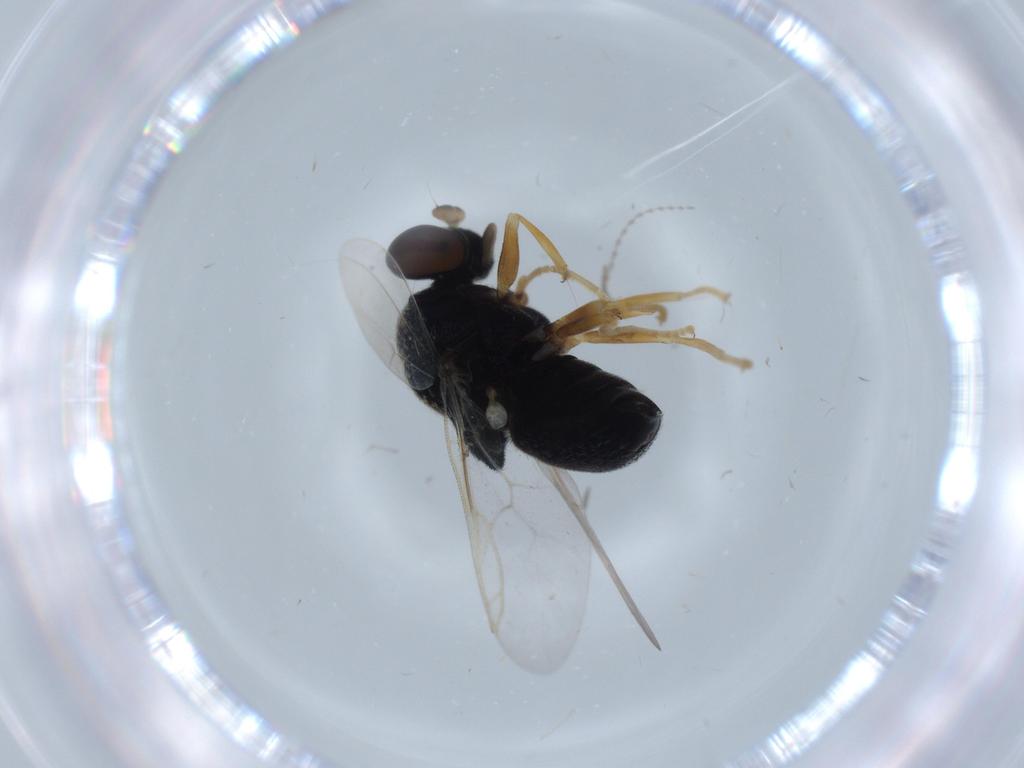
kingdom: Animalia
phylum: Arthropoda
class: Insecta
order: Diptera
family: Stratiomyidae
